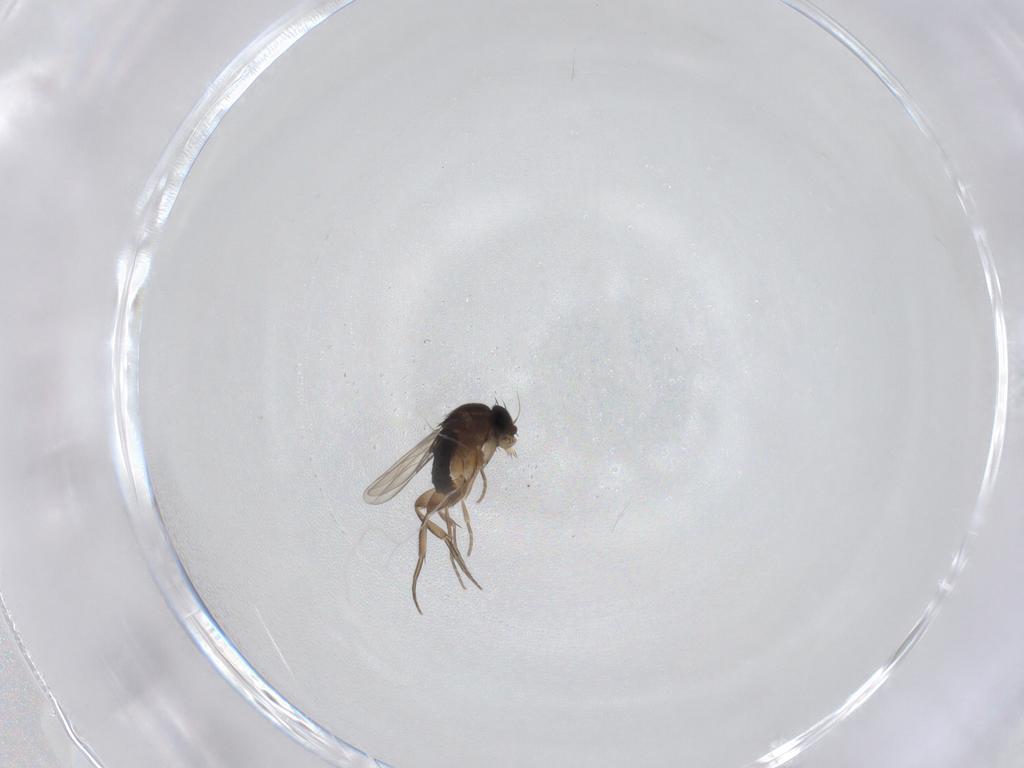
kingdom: Animalia
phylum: Arthropoda
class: Insecta
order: Diptera
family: Phoridae
